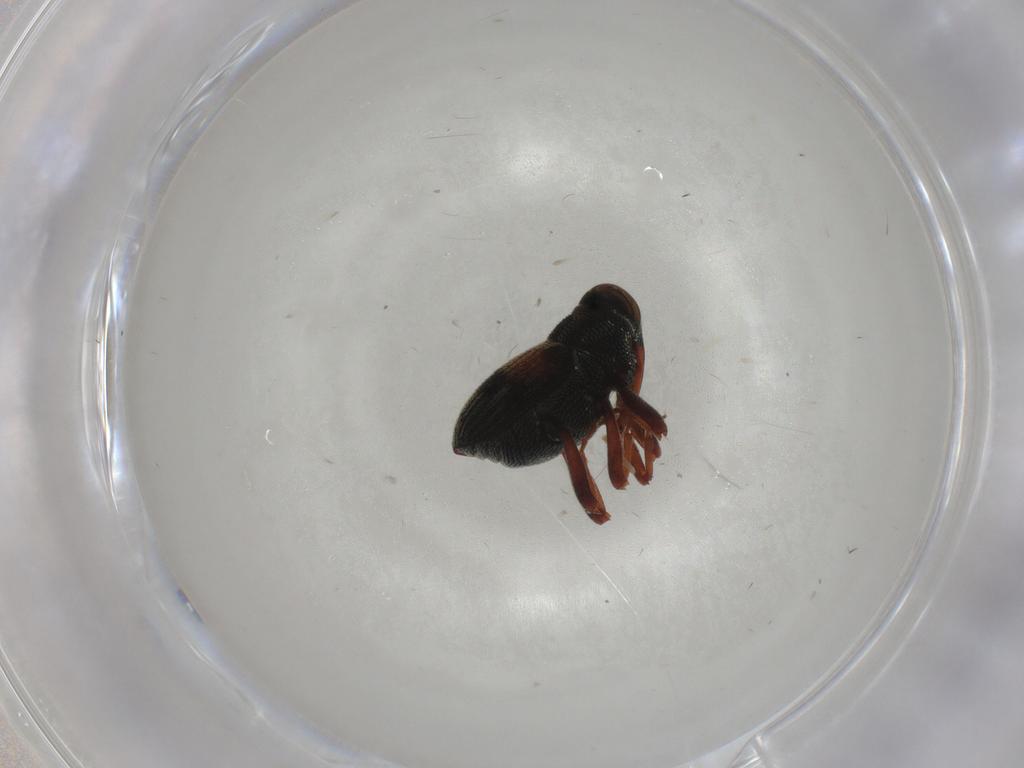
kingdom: Animalia
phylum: Arthropoda
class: Insecta
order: Coleoptera
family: Curculionidae
